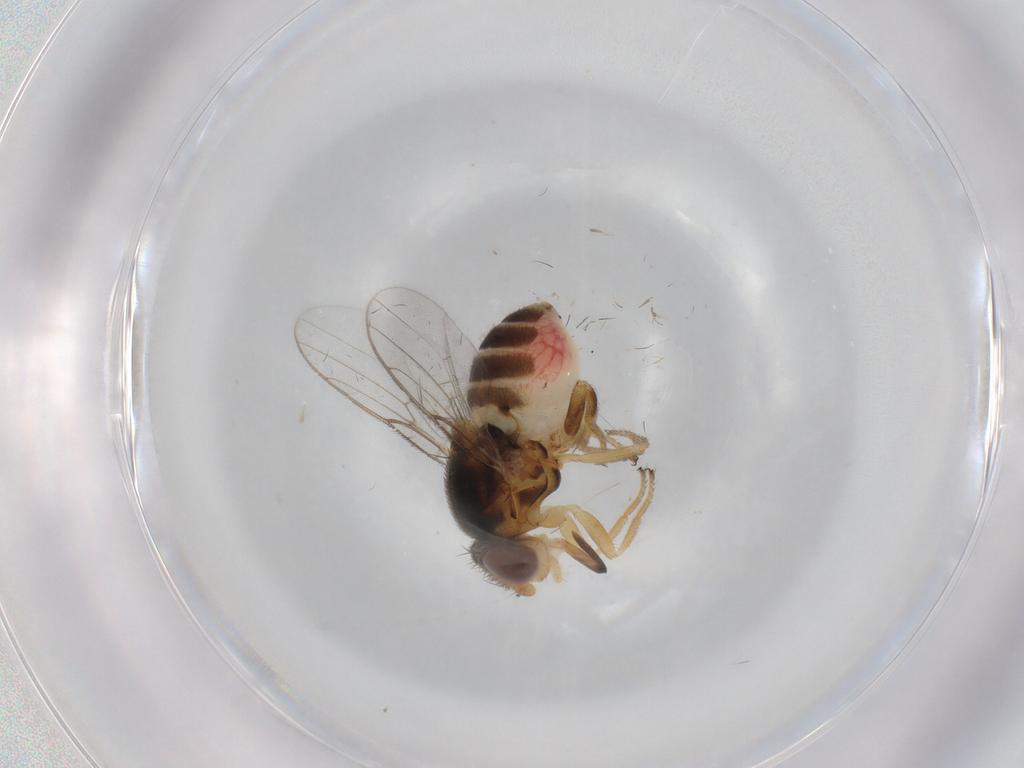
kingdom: Animalia
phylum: Arthropoda
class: Insecta
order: Diptera
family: Chloropidae
